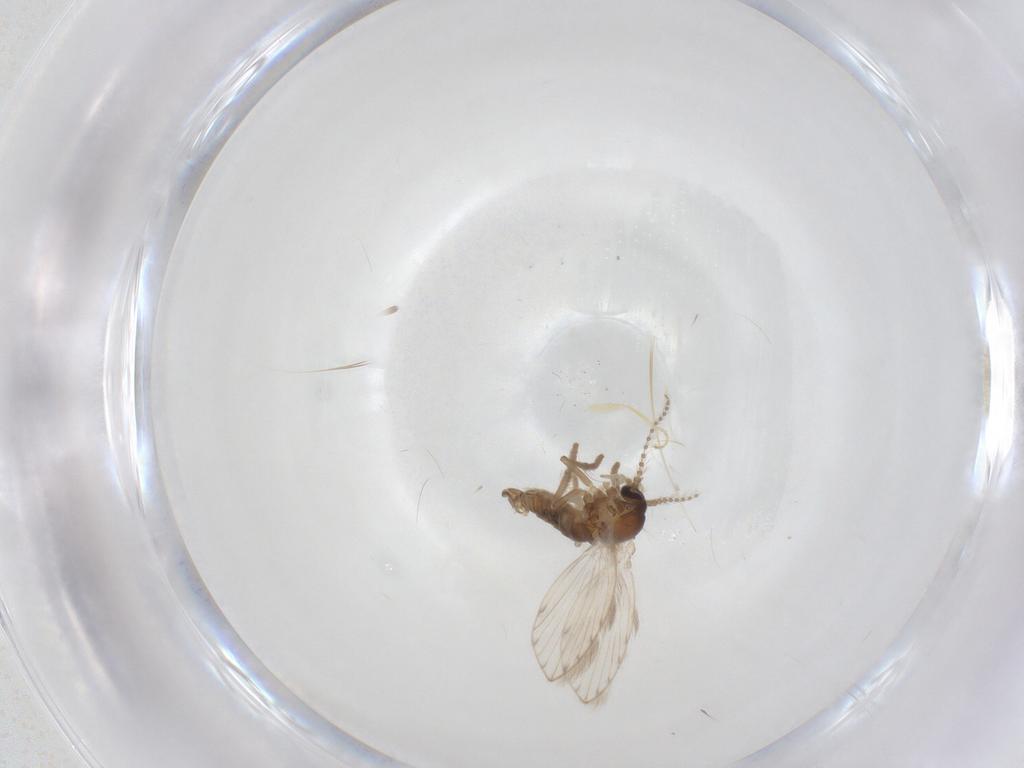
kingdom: Animalia
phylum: Arthropoda
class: Insecta
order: Diptera
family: Psychodidae
